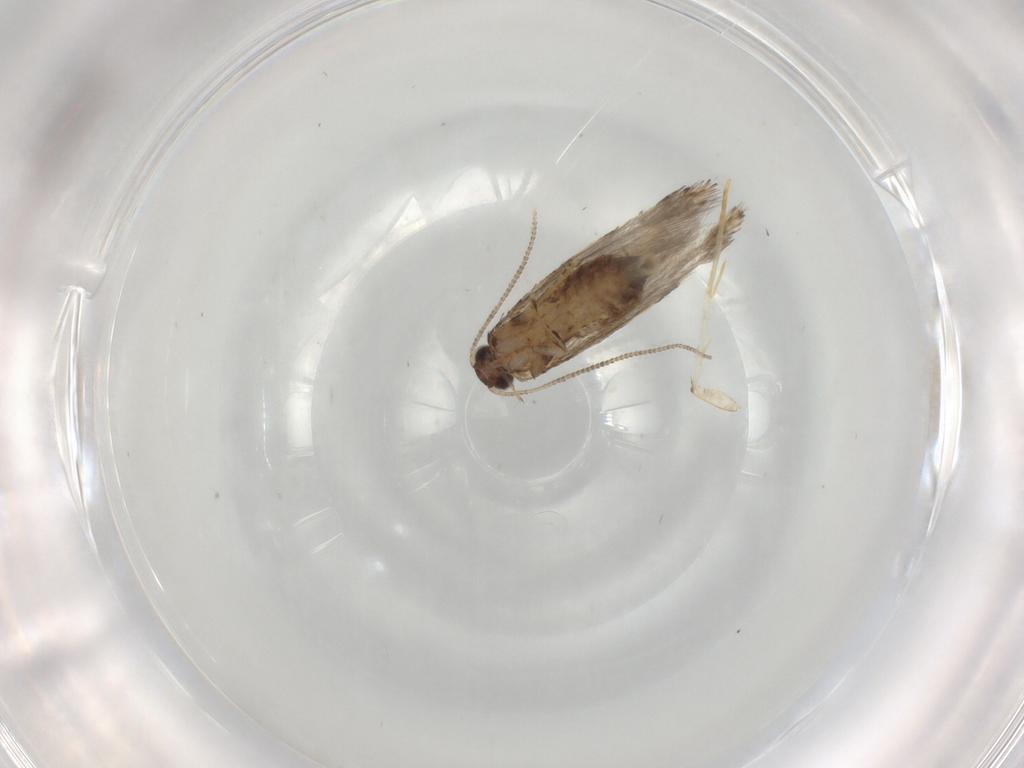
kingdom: Animalia
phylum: Arthropoda
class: Insecta
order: Lepidoptera
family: Tineidae
